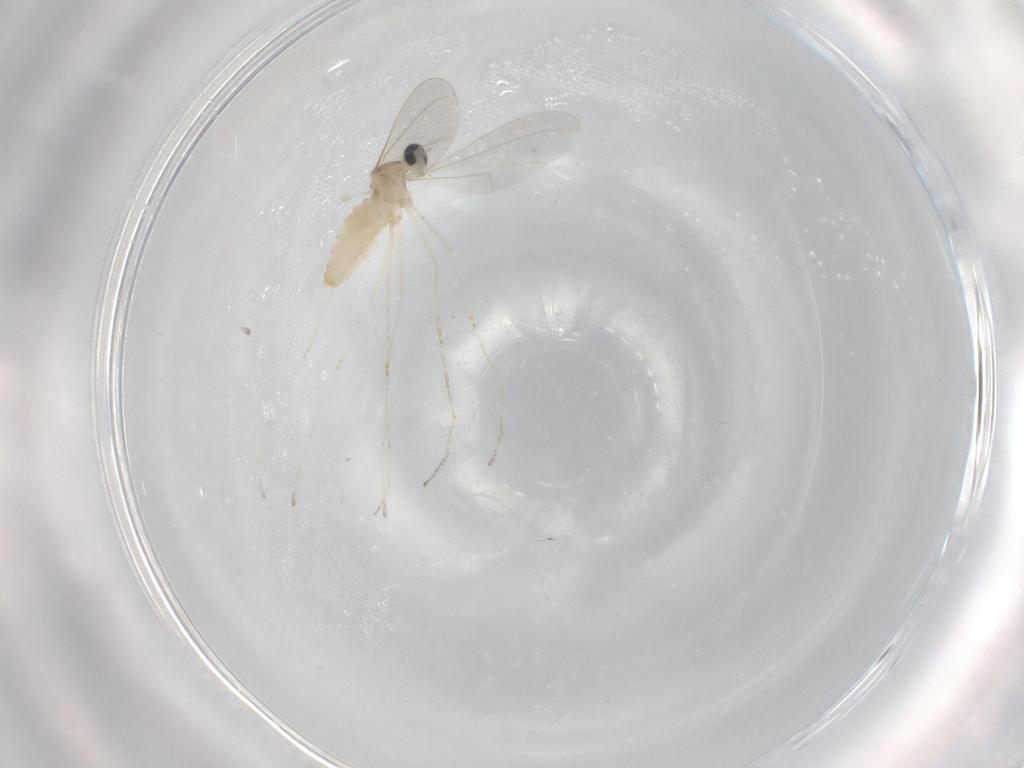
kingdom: Animalia
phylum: Arthropoda
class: Insecta
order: Diptera
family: Cecidomyiidae
